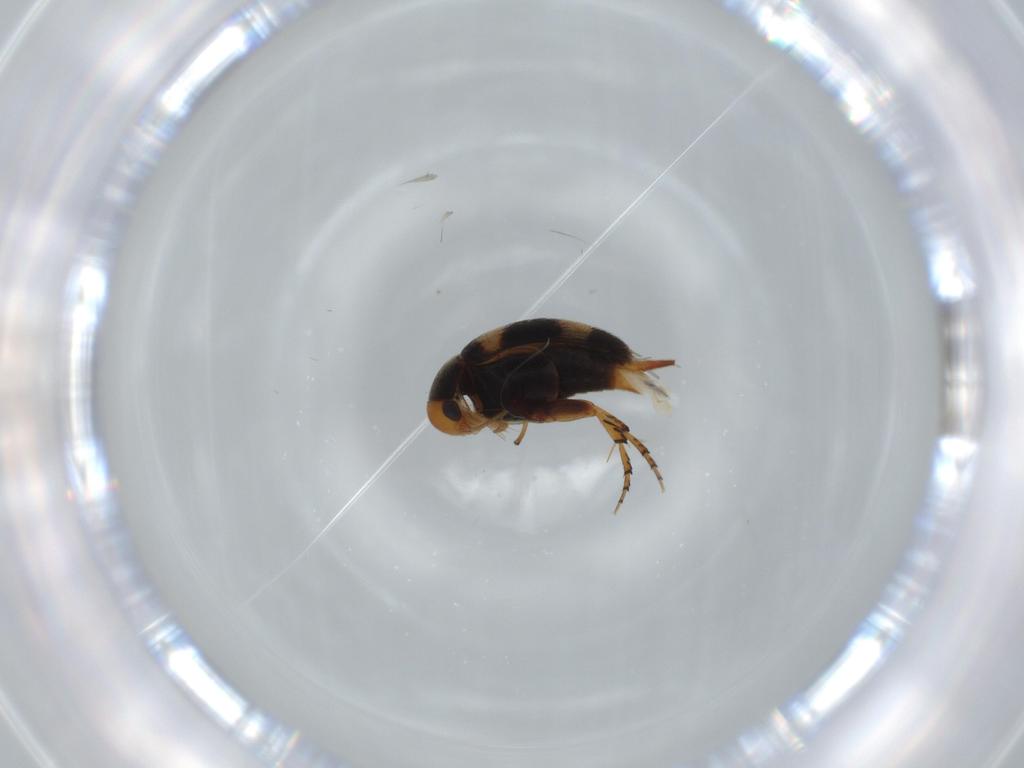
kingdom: Animalia
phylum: Arthropoda
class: Insecta
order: Coleoptera
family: Mordellidae
